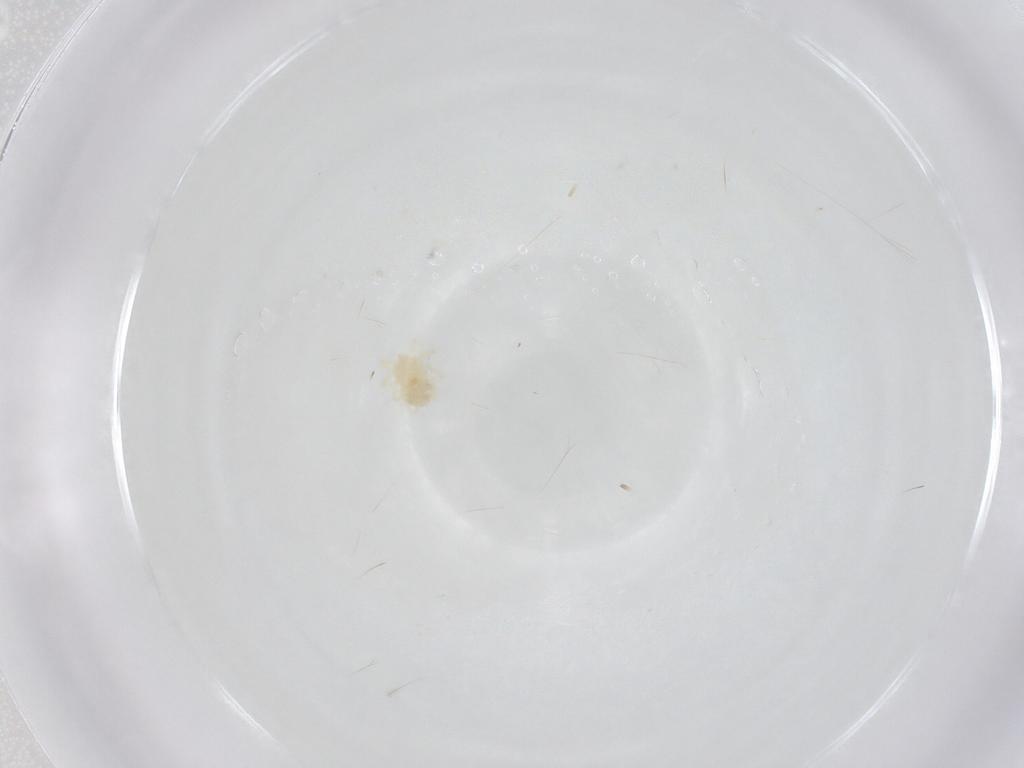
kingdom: Animalia
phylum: Arthropoda
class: Arachnida
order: Trombidiformes
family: Anystidae
